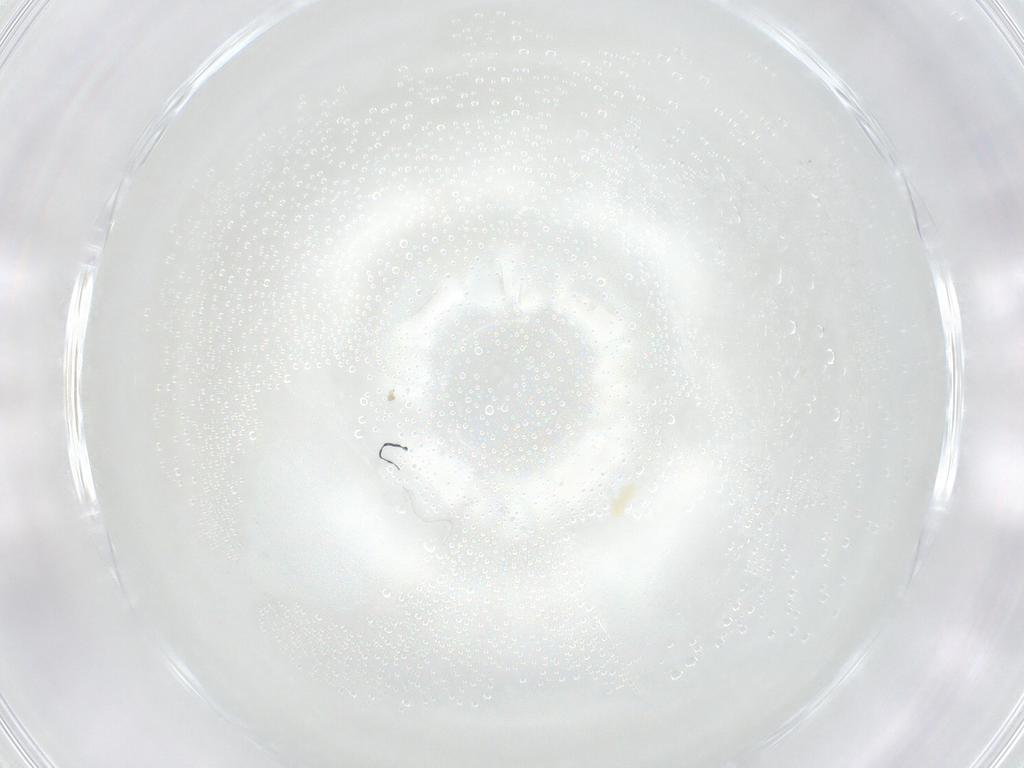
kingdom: Animalia
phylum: Arthropoda
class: Arachnida
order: Trombidiformes
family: Eupodidae
